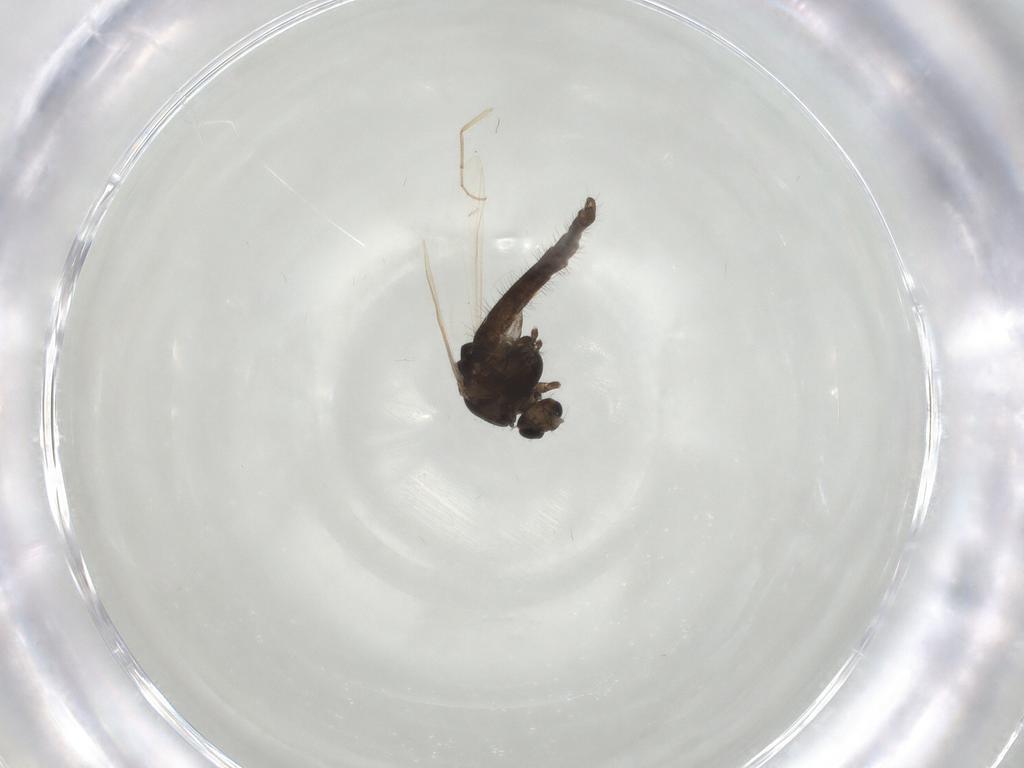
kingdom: Animalia
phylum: Arthropoda
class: Insecta
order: Diptera
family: Chironomidae
